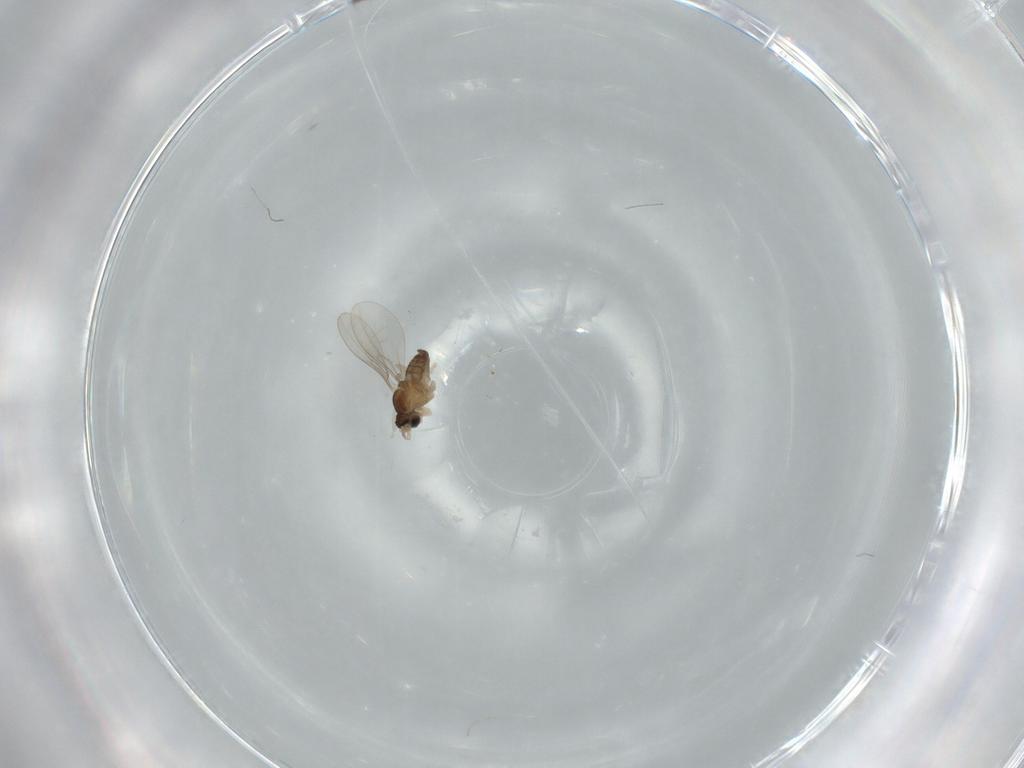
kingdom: Animalia
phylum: Arthropoda
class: Insecta
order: Diptera
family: Cecidomyiidae
